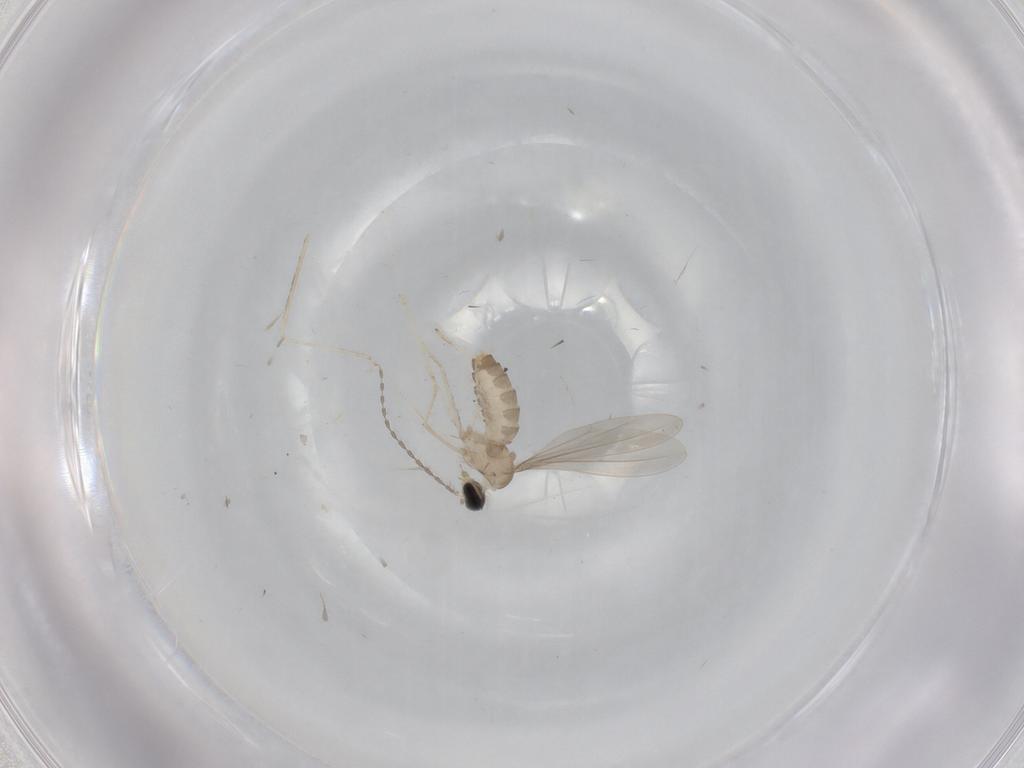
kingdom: Animalia
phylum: Arthropoda
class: Insecta
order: Diptera
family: Cecidomyiidae
